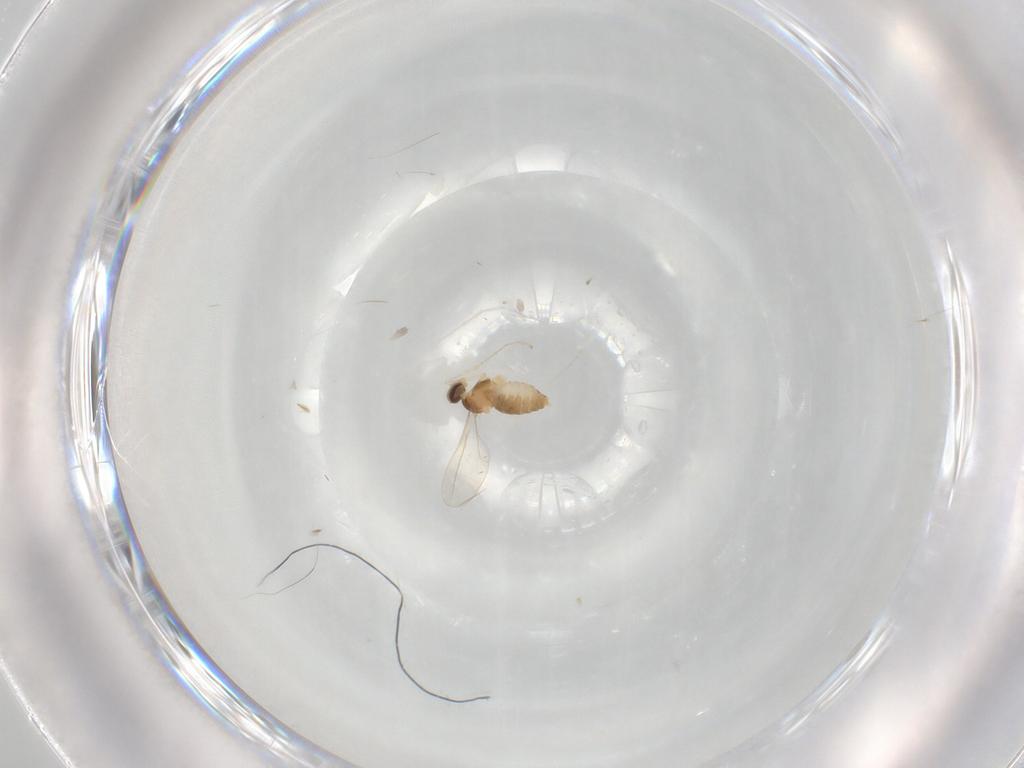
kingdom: Animalia
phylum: Arthropoda
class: Insecta
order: Diptera
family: Cecidomyiidae
